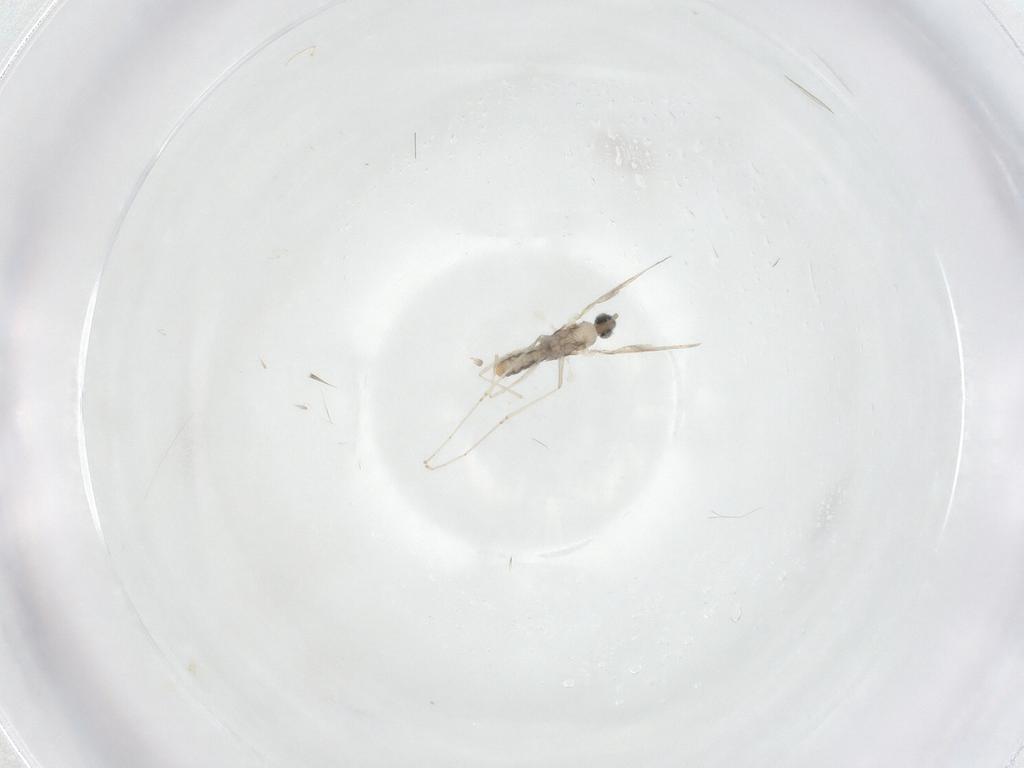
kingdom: Animalia
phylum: Arthropoda
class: Insecta
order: Diptera
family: Cecidomyiidae
